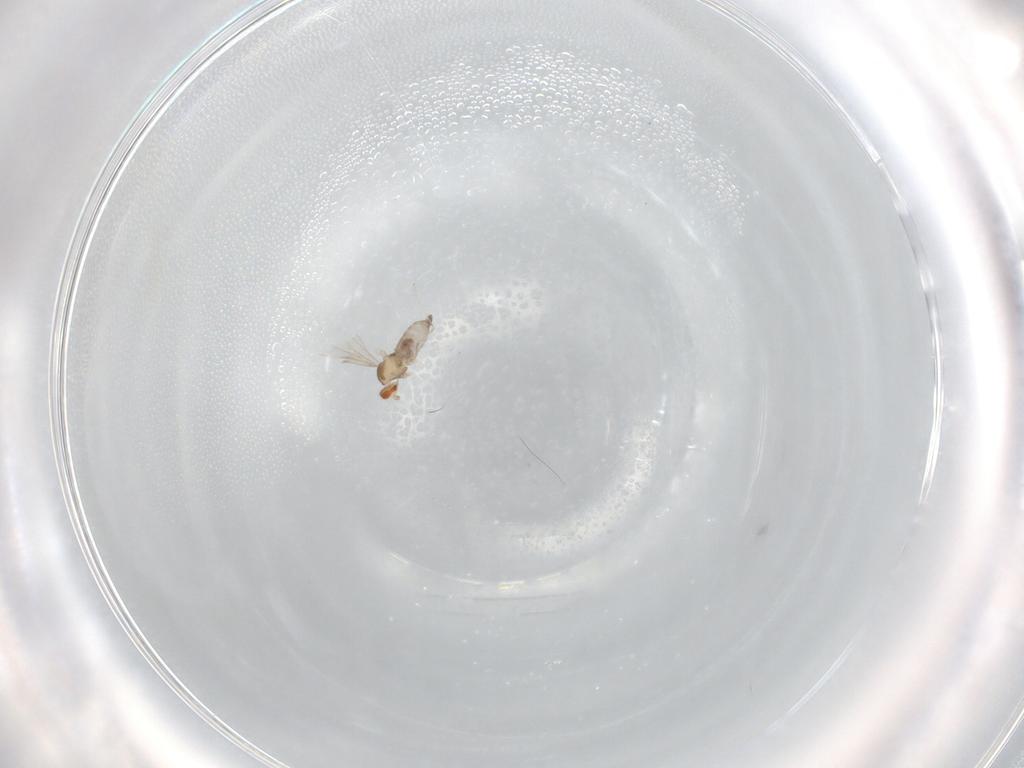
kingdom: Animalia
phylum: Arthropoda
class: Insecta
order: Diptera
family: Cecidomyiidae
